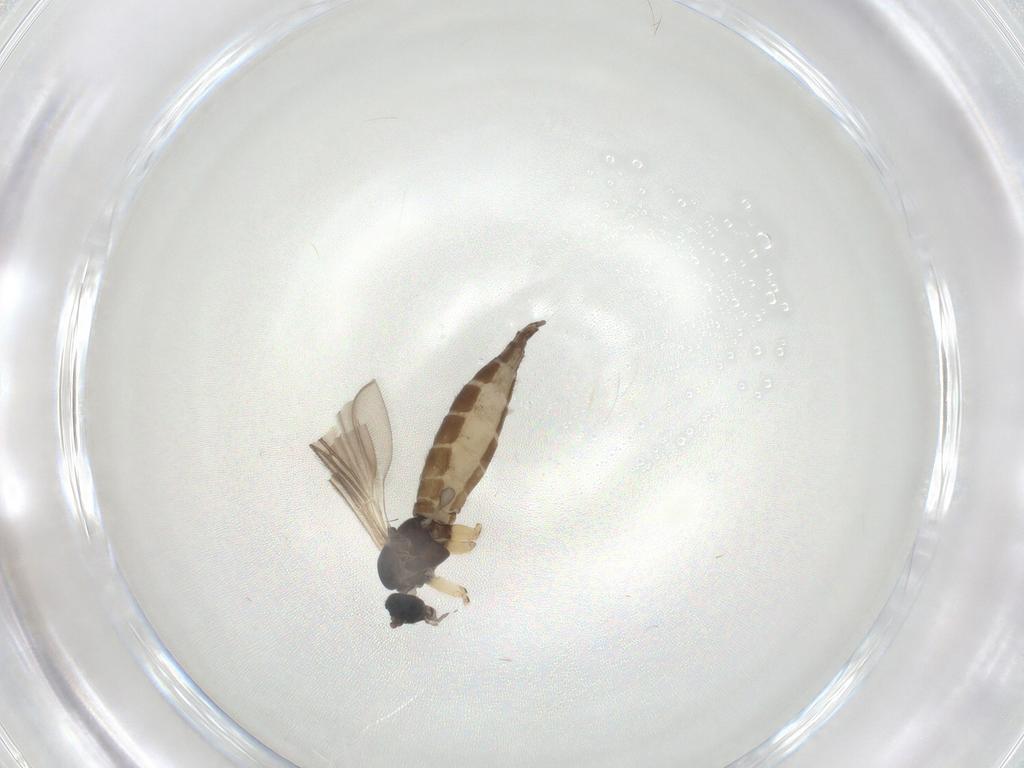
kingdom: Animalia
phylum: Arthropoda
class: Insecta
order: Diptera
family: Sciaridae
